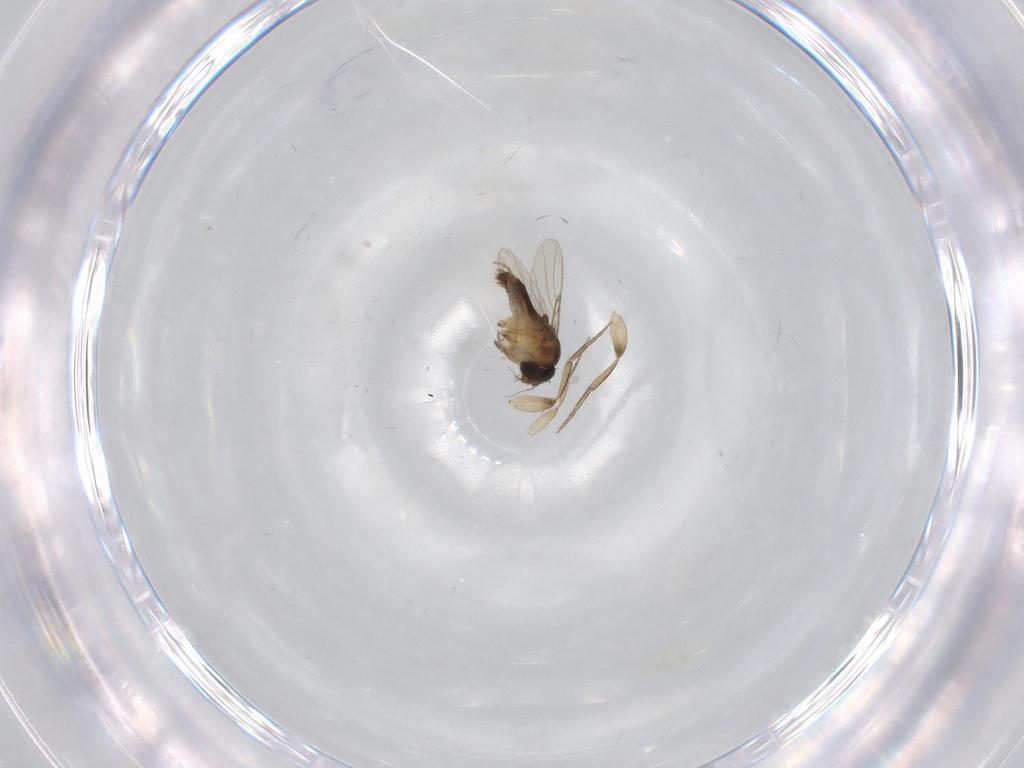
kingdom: Animalia
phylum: Arthropoda
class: Insecta
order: Diptera
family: Psychodidae
